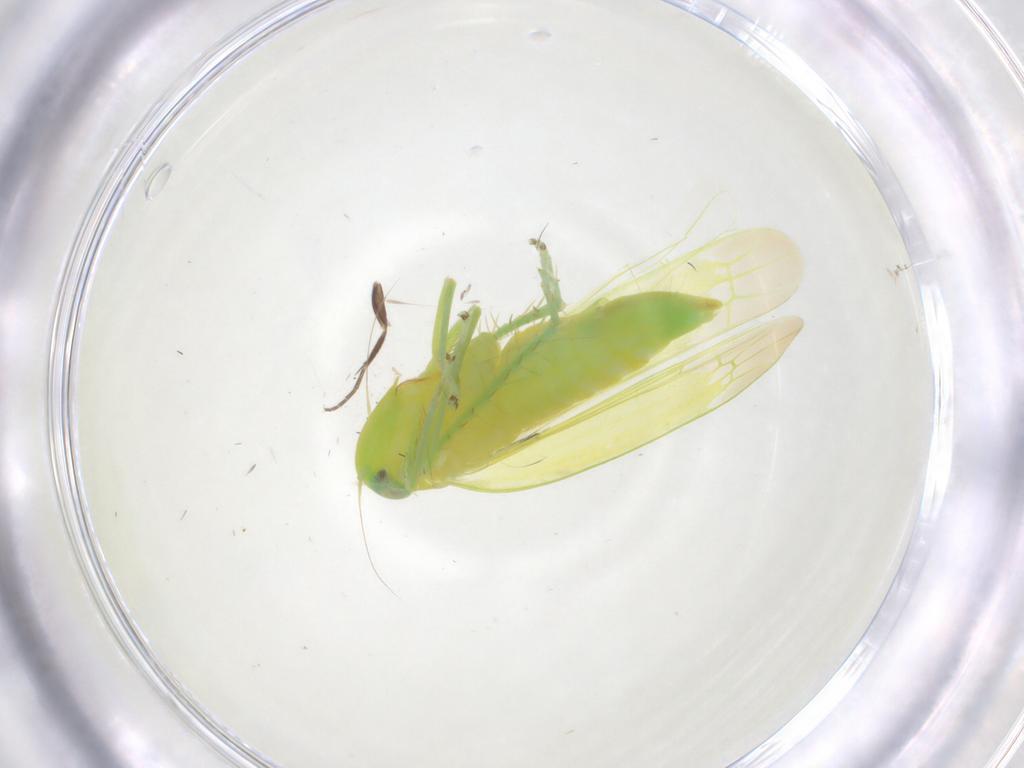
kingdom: Animalia
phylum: Arthropoda
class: Insecta
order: Hemiptera
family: Cicadellidae
